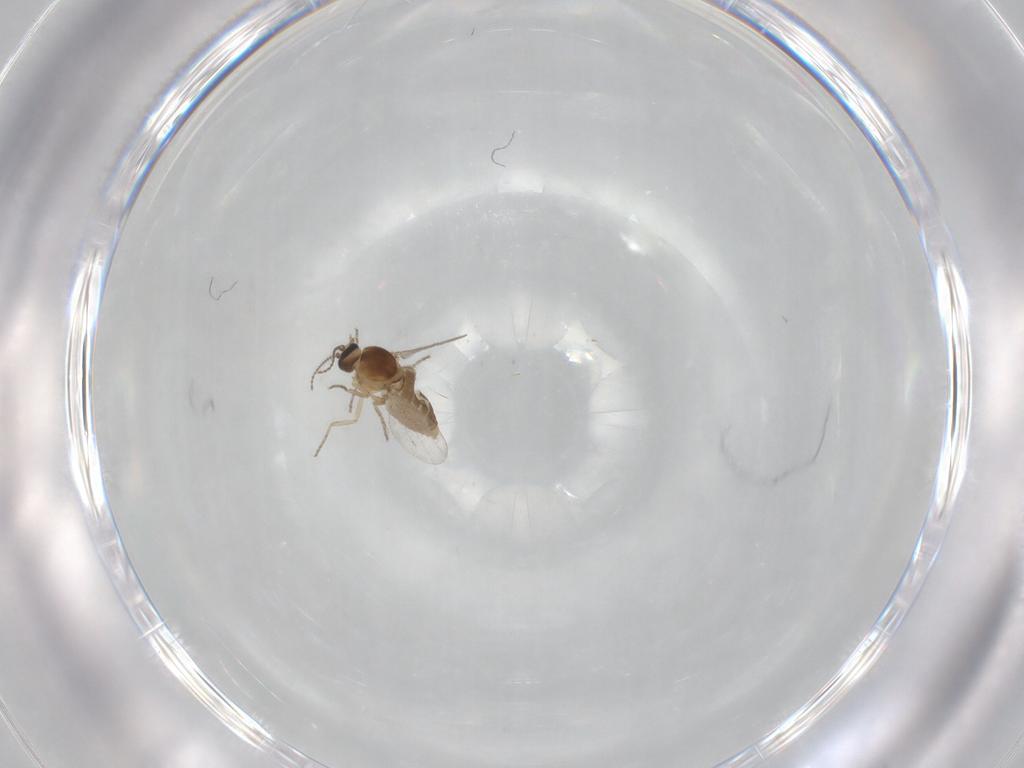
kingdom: Animalia
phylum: Arthropoda
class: Insecta
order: Diptera
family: Ceratopogonidae
